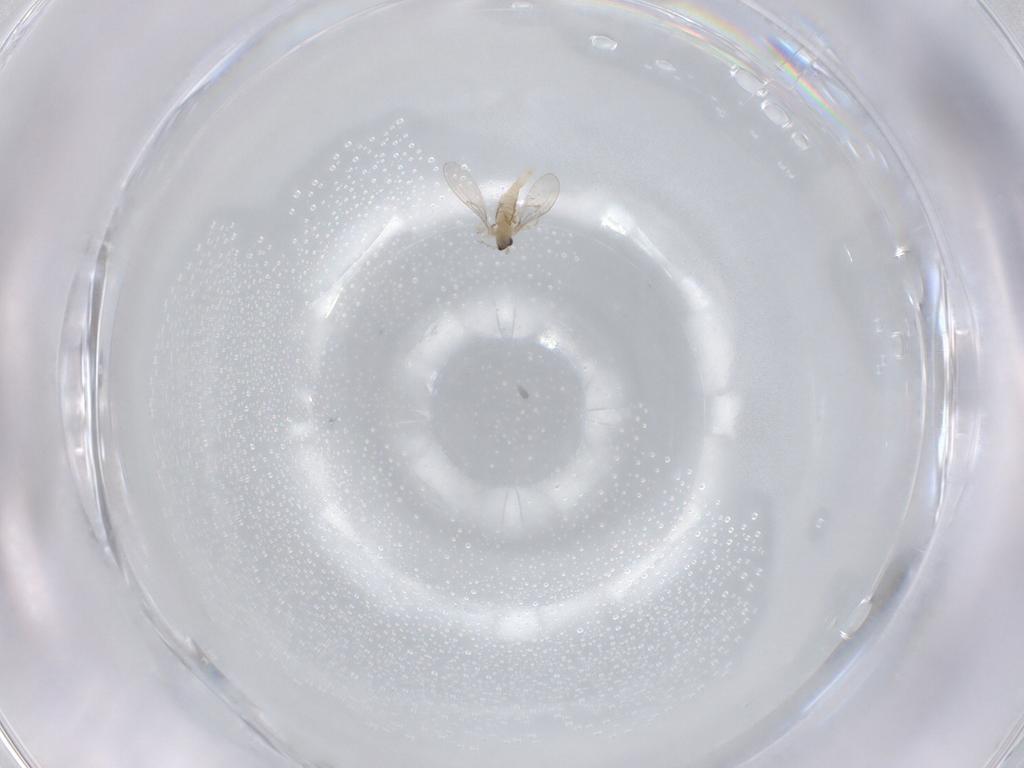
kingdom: Animalia
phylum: Arthropoda
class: Insecta
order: Diptera
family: Cecidomyiidae
